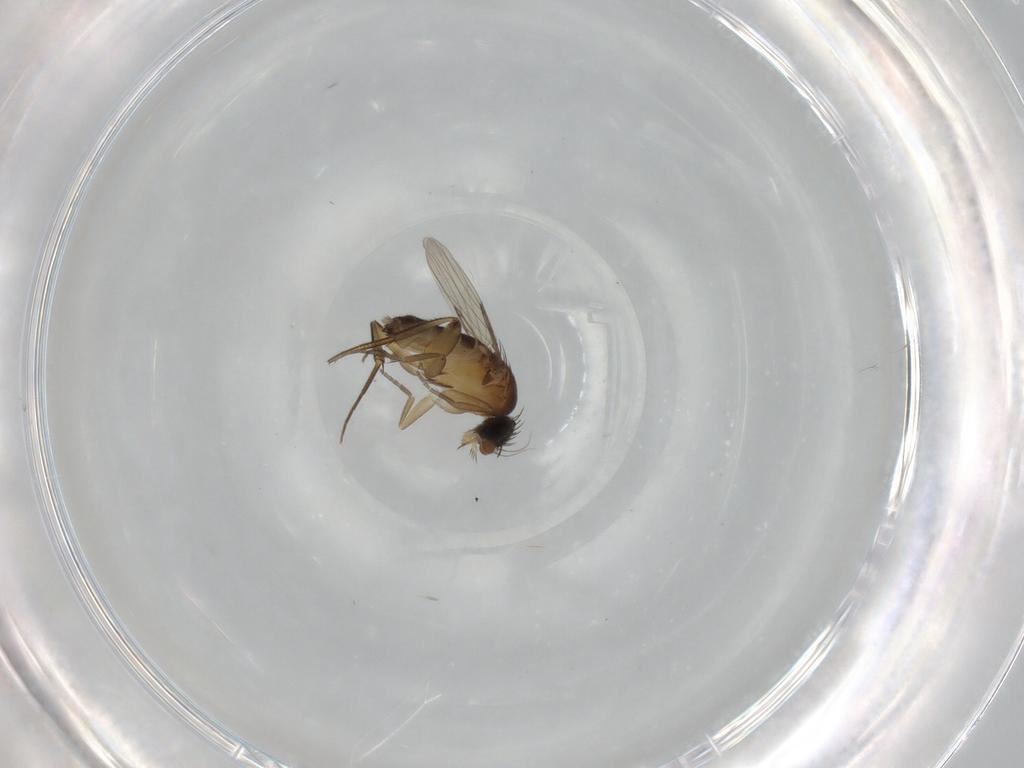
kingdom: Animalia
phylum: Arthropoda
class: Insecta
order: Diptera
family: Phoridae
